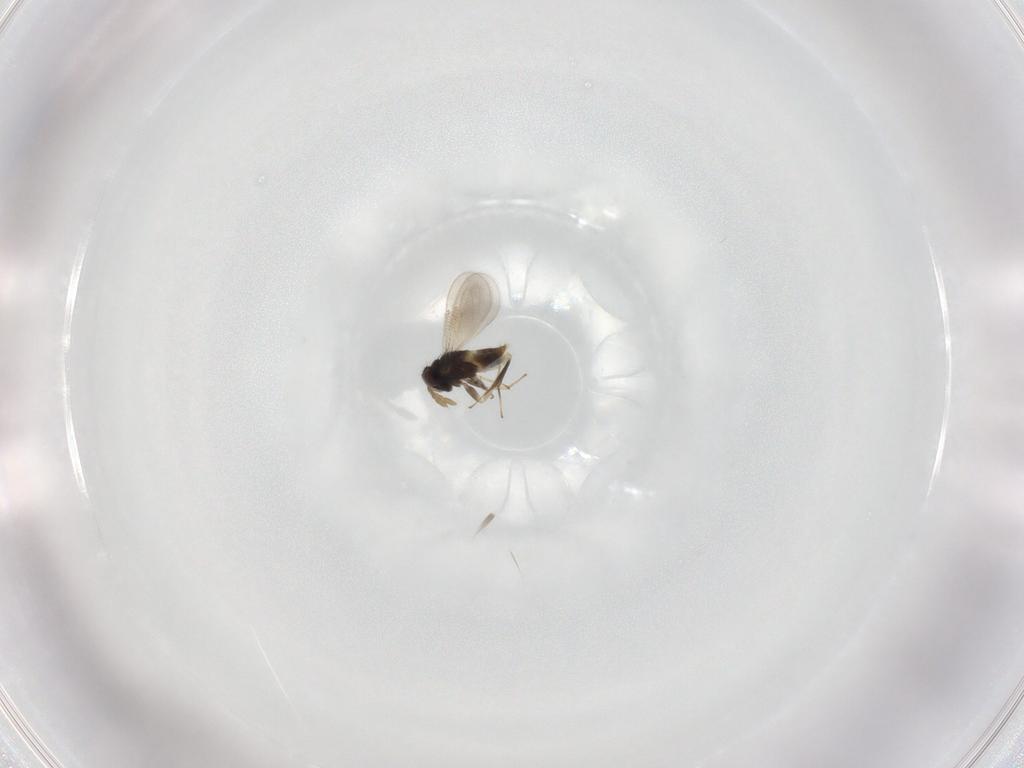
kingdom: Animalia
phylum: Arthropoda
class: Insecta
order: Hymenoptera
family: Aphelinidae
